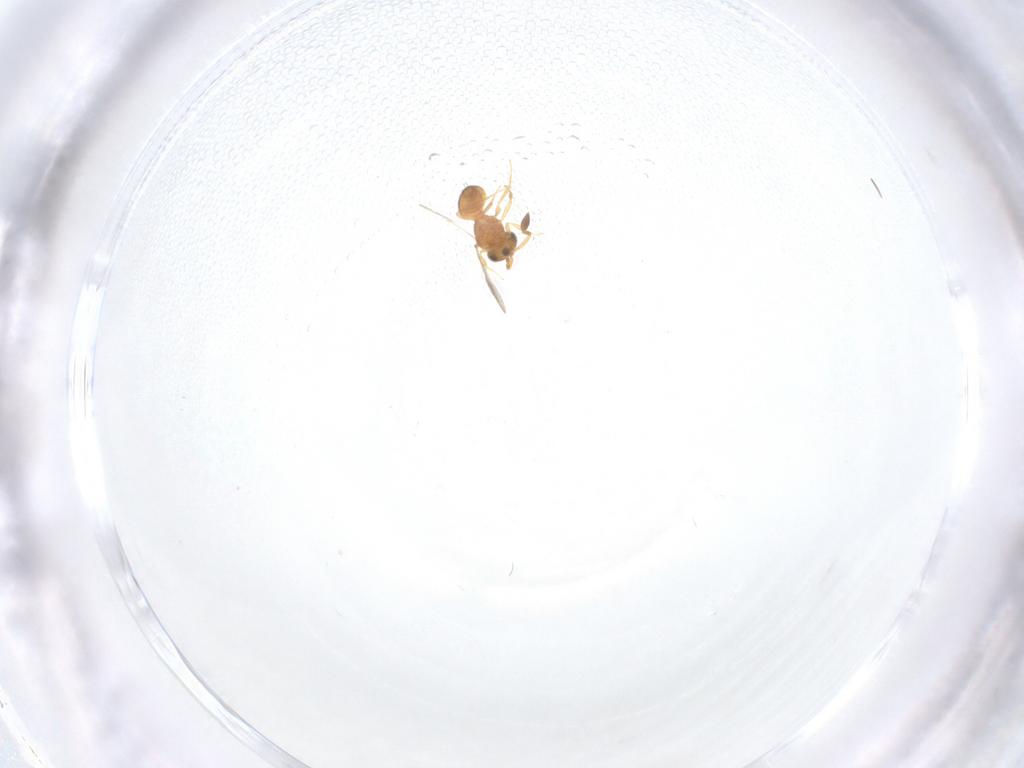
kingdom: Animalia
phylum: Arthropoda
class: Insecta
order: Hymenoptera
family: Scelionidae
